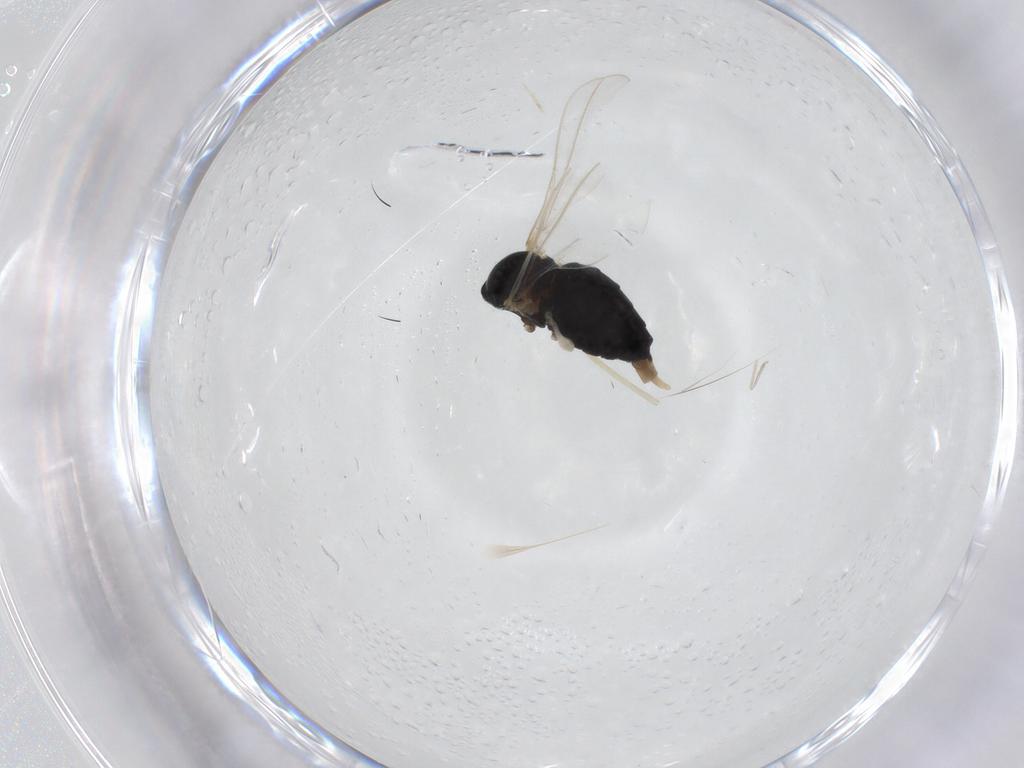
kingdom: Animalia
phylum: Arthropoda
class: Insecta
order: Diptera
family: Cecidomyiidae
